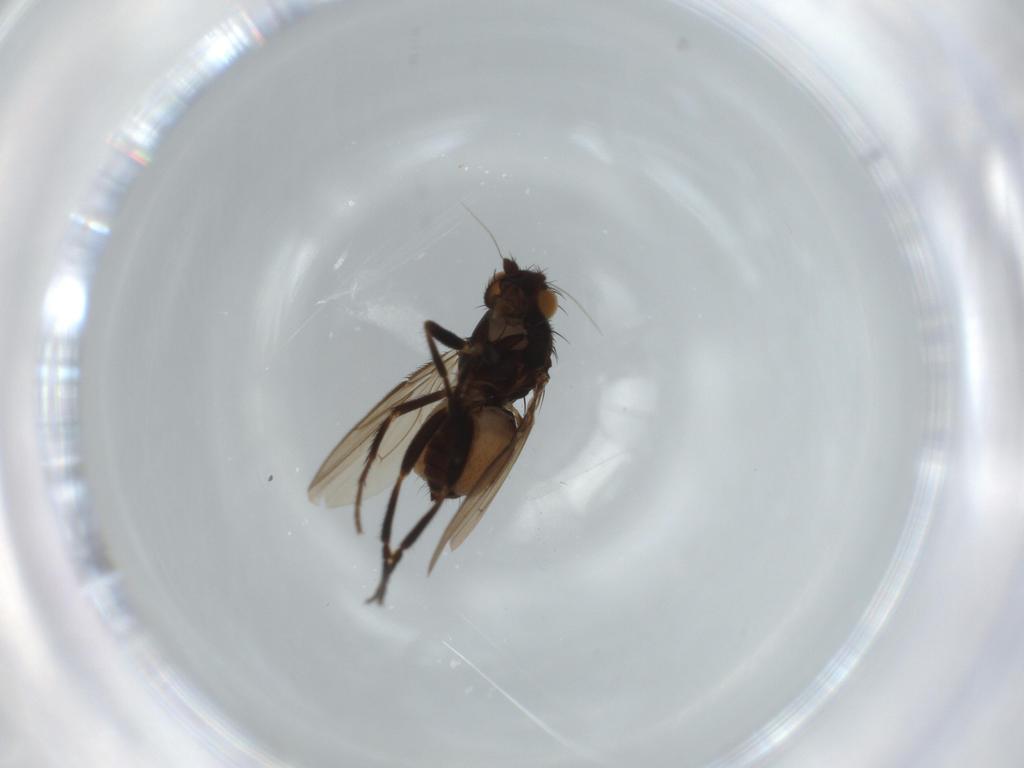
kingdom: Animalia
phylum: Arthropoda
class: Insecta
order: Diptera
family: Sphaeroceridae
